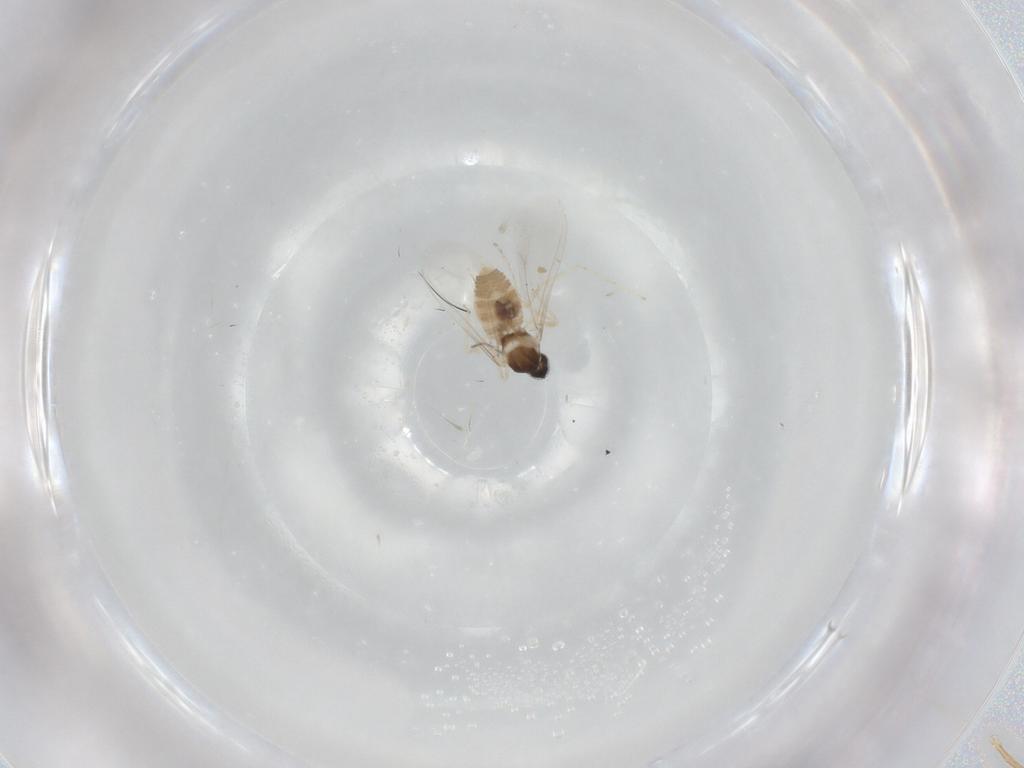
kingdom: Animalia
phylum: Arthropoda
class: Insecta
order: Diptera
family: Cecidomyiidae
